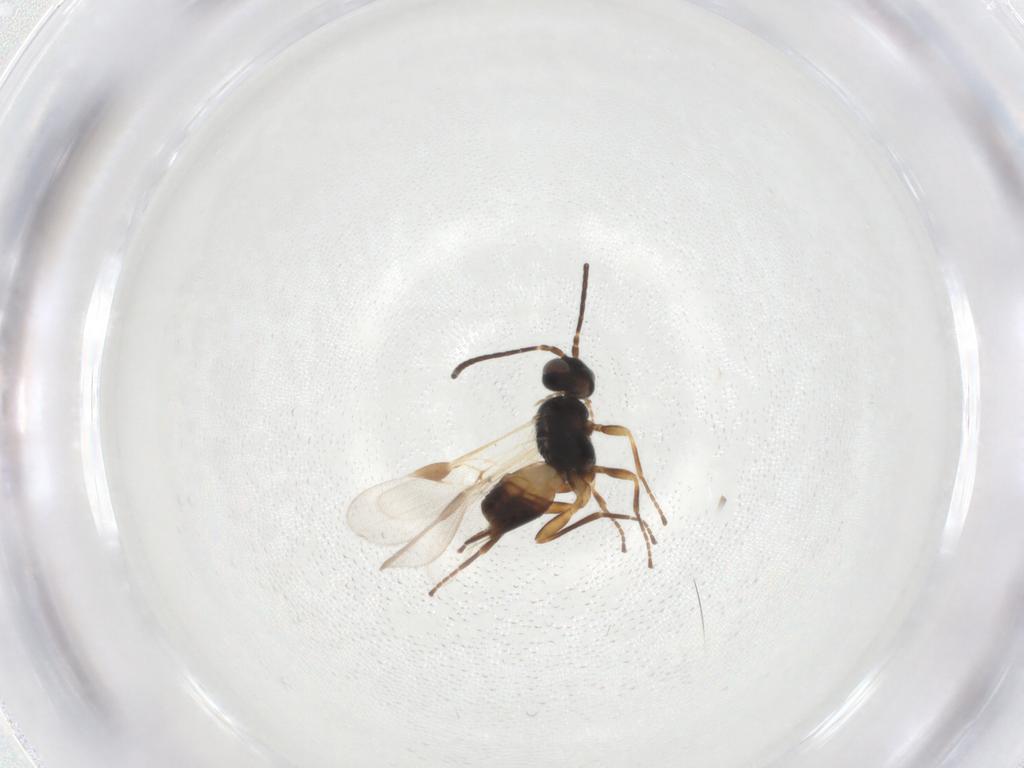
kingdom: Animalia
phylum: Arthropoda
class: Insecta
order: Hymenoptera
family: Braconidae
